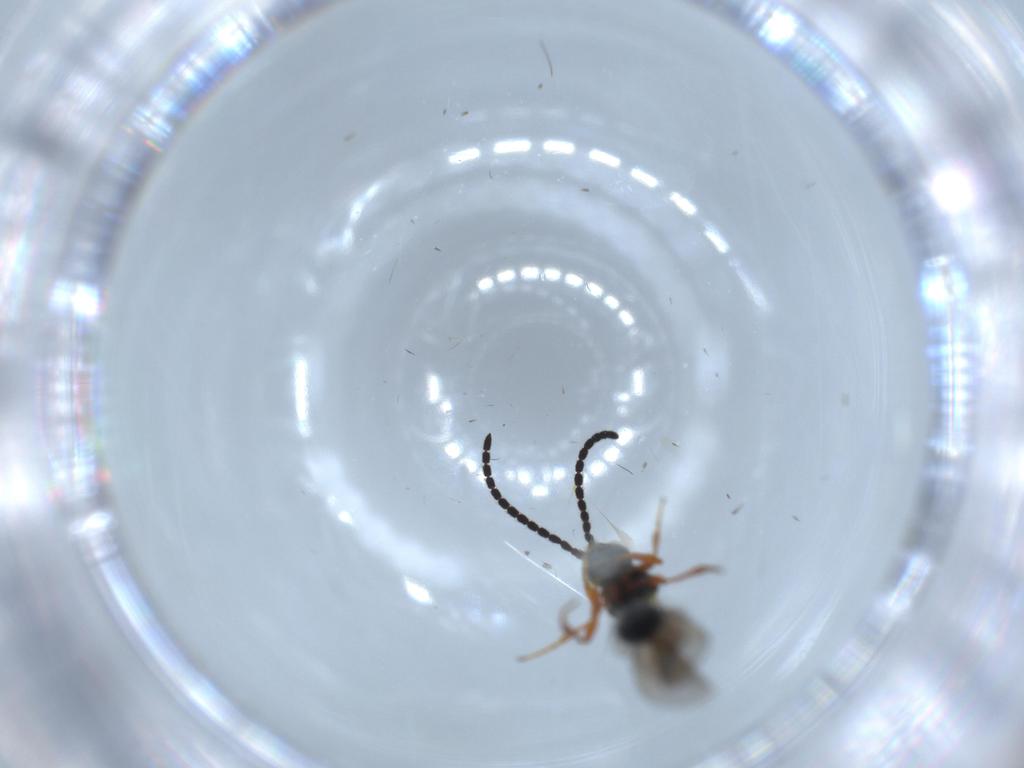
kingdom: Animalia
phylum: Arthropoda
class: Insecta
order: Hymenoptera
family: Diapriidae
